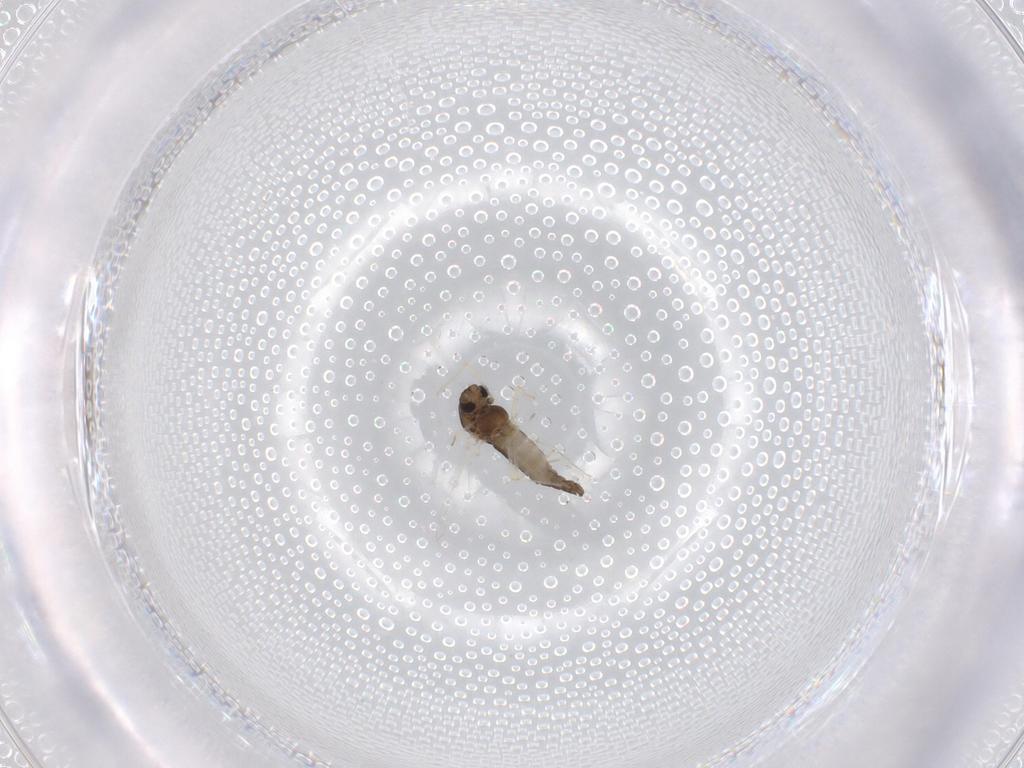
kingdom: Animalia
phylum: Arthropoda
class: Insecta
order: Diptera
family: Chironomidae
